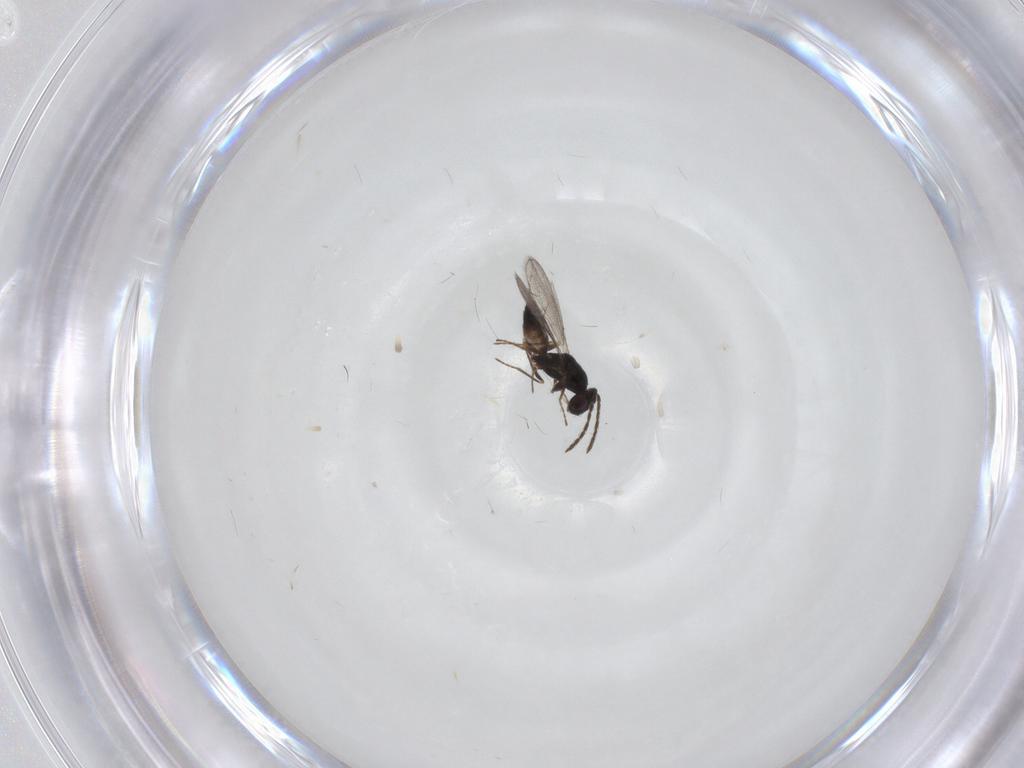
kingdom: Animalia
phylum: Arthropoda
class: Insecta
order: Hymenoptera
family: Eulophidae
